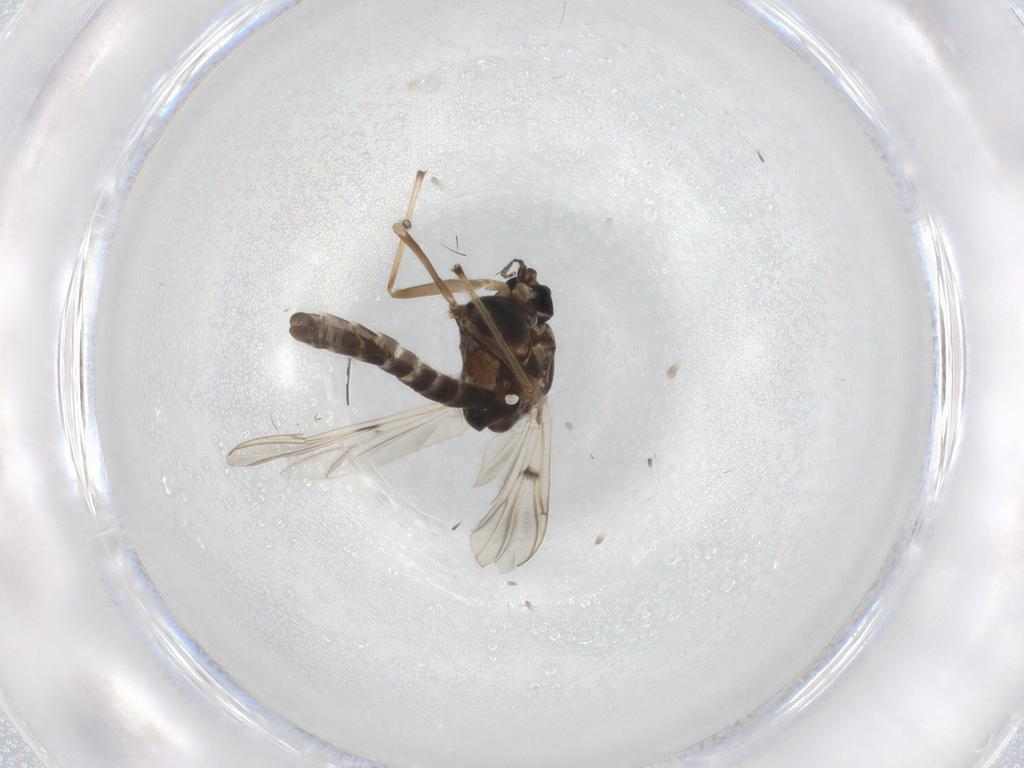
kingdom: Animalia
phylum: Arthropoda
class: Insecta
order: Diptera
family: Chironomidae
